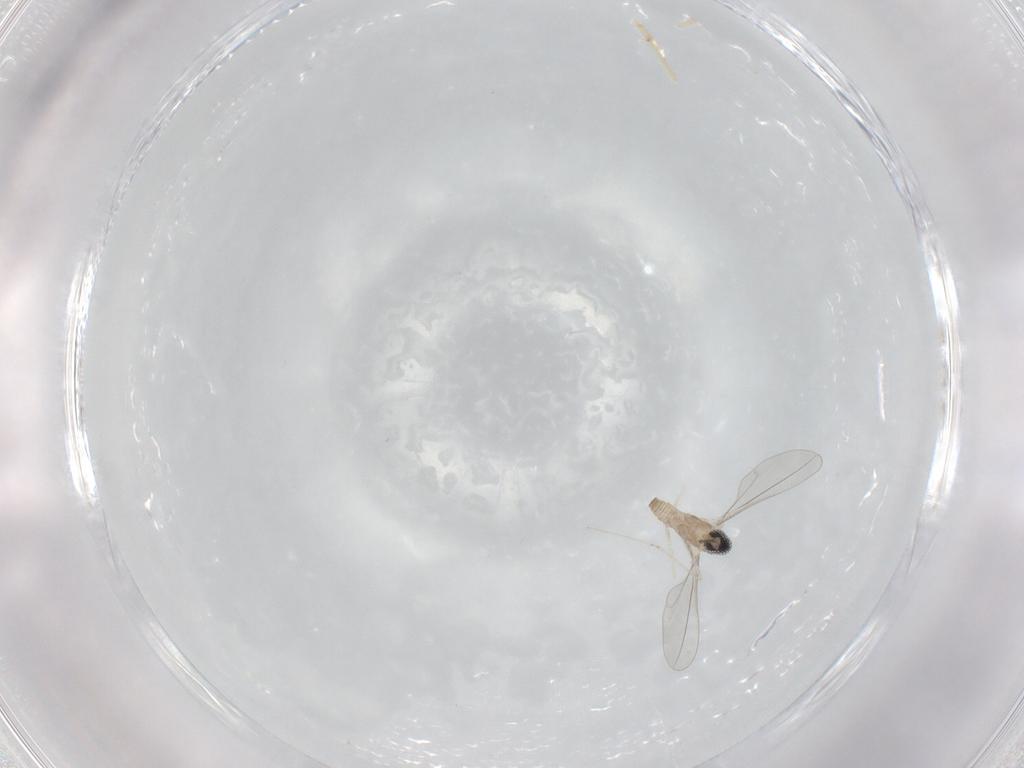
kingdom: Animalia
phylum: Arthropoda
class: Insecta
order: Diptera
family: Cecidomyiidae
